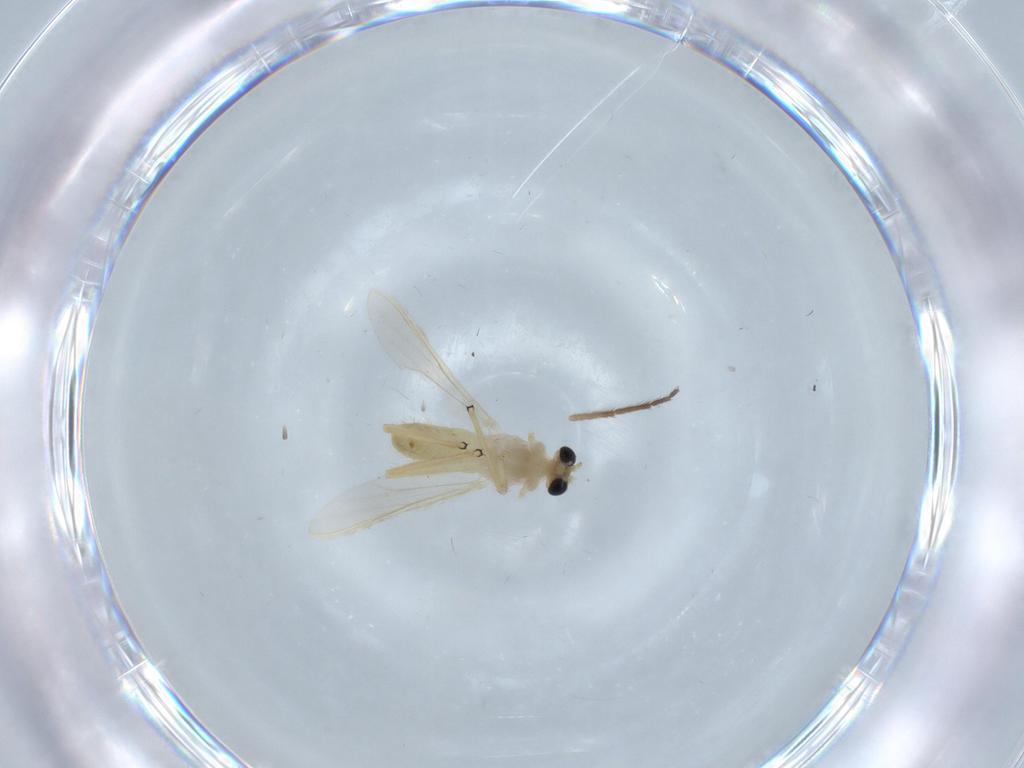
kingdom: Animalia
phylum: Arthropoda
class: Insecta
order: Diptera
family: Chironomidae
